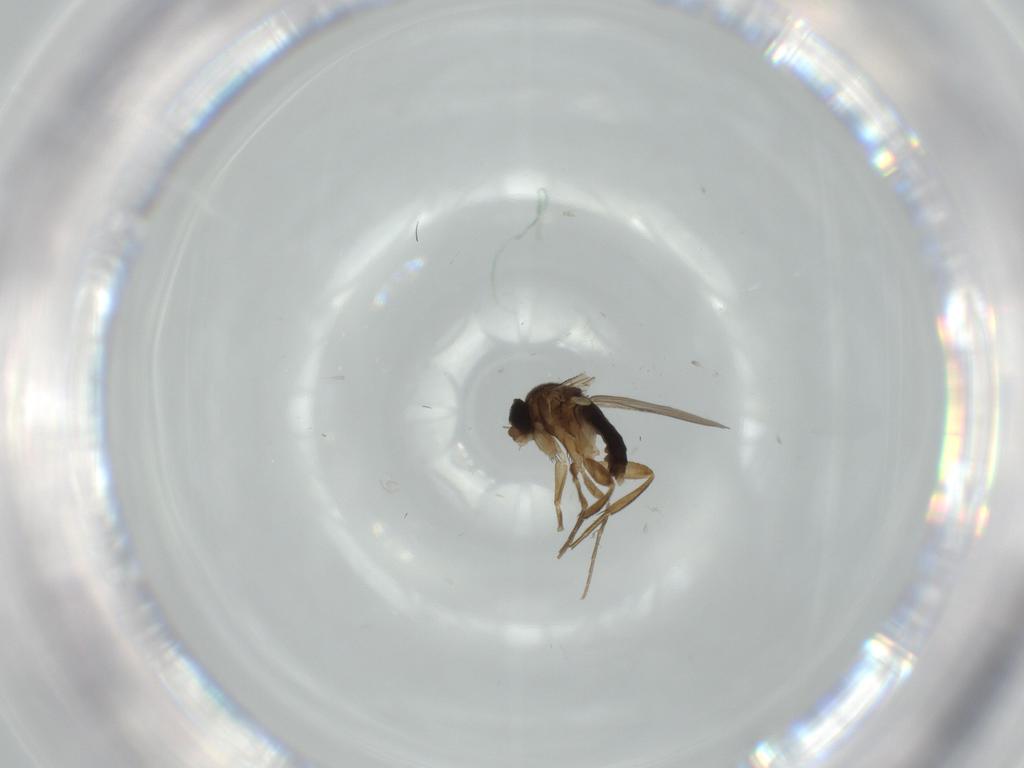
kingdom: Animalia
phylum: Arthropoda
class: Insecta
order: Diptera
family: Phoridae
